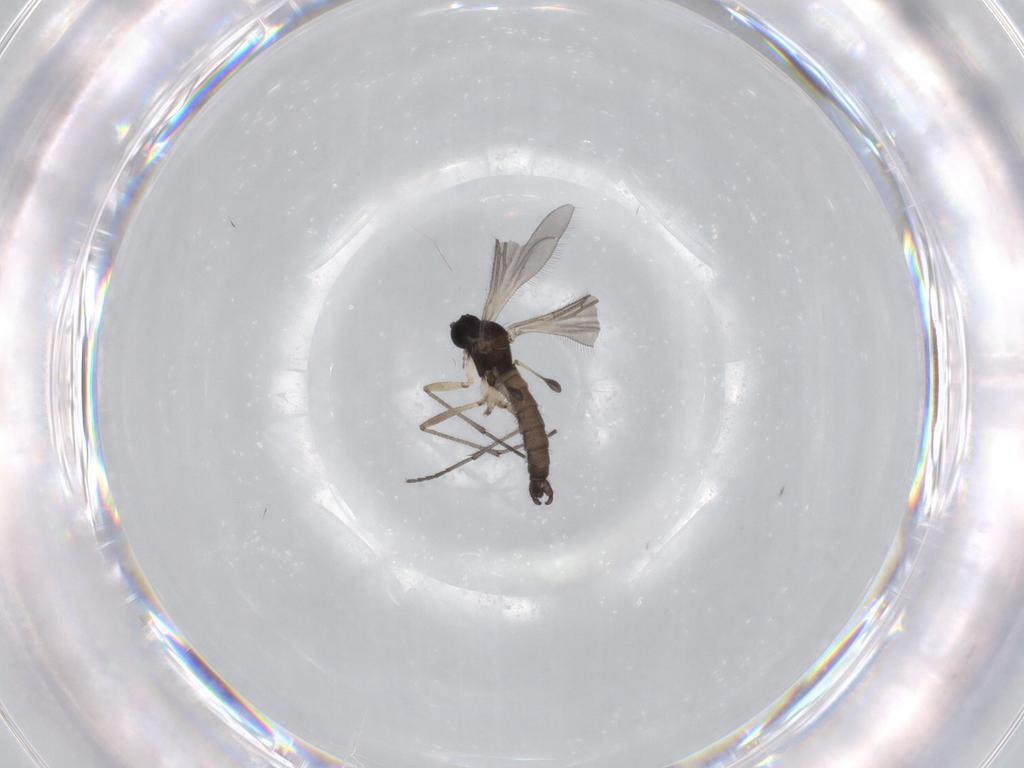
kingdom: Animalia
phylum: Arthropoda
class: Insecta
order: Diptera
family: Sciaridae
